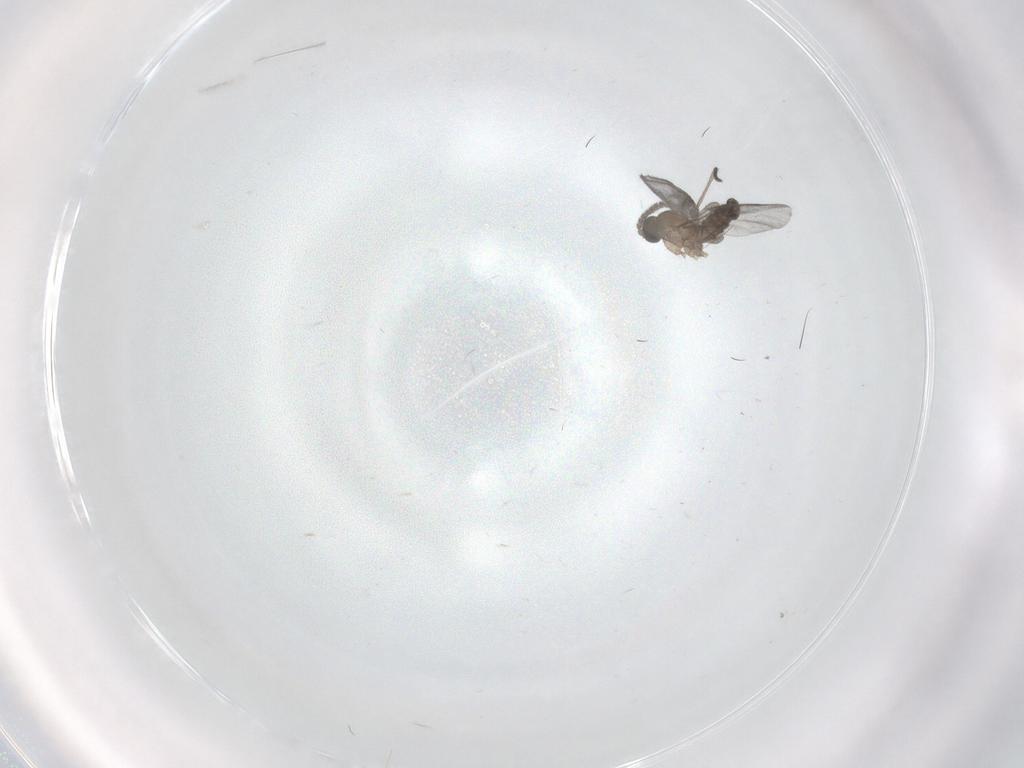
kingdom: Animalia
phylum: Arthropoda
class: Insecta
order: Diptera
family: Sciaridae
